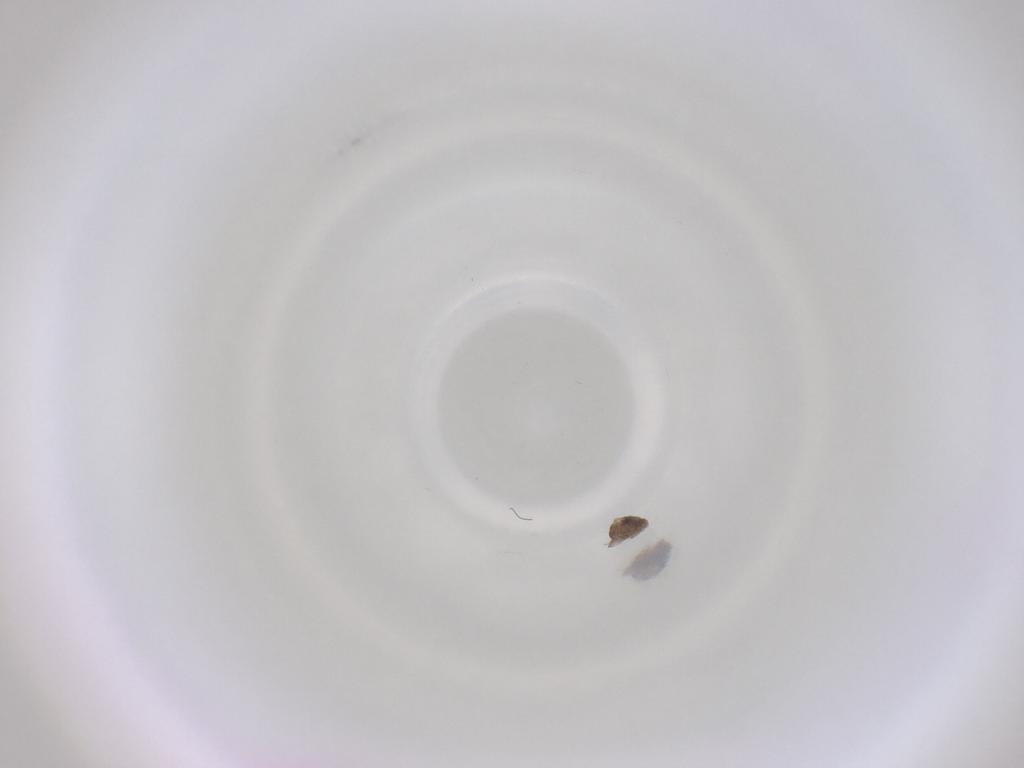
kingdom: Animalia
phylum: Arthropoda
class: Insecta
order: Diptera
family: Cecidomyiidae
